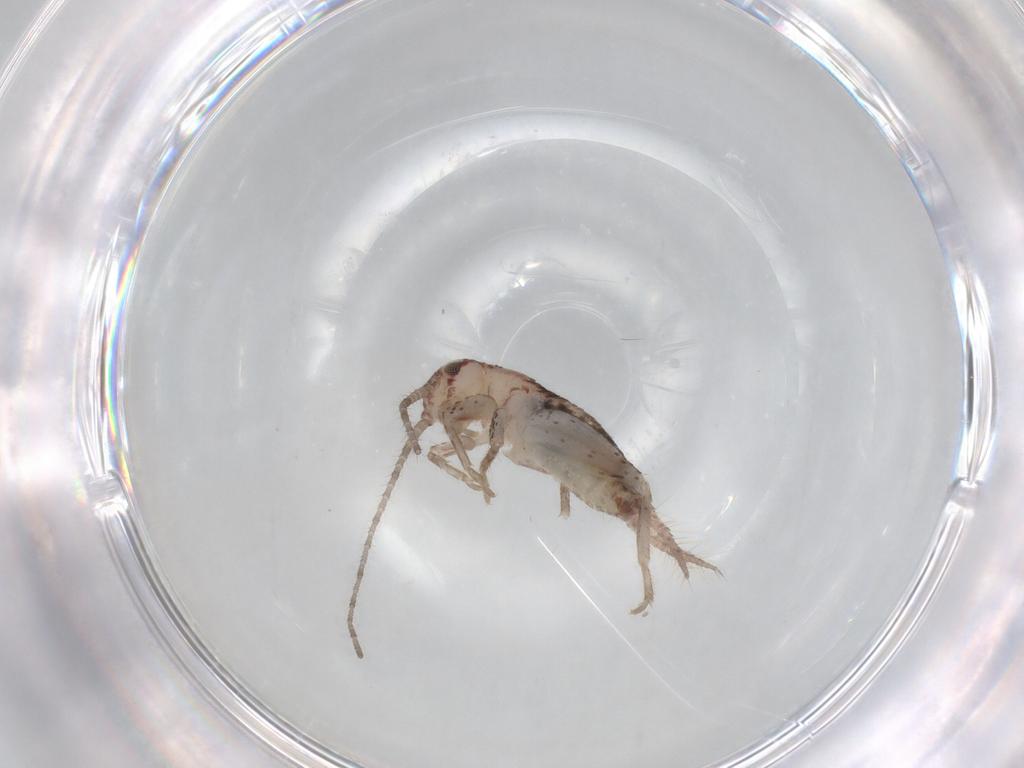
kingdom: Animalia
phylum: Arthropoda
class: Insecta
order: Orthoptera
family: Mogoplistidae
